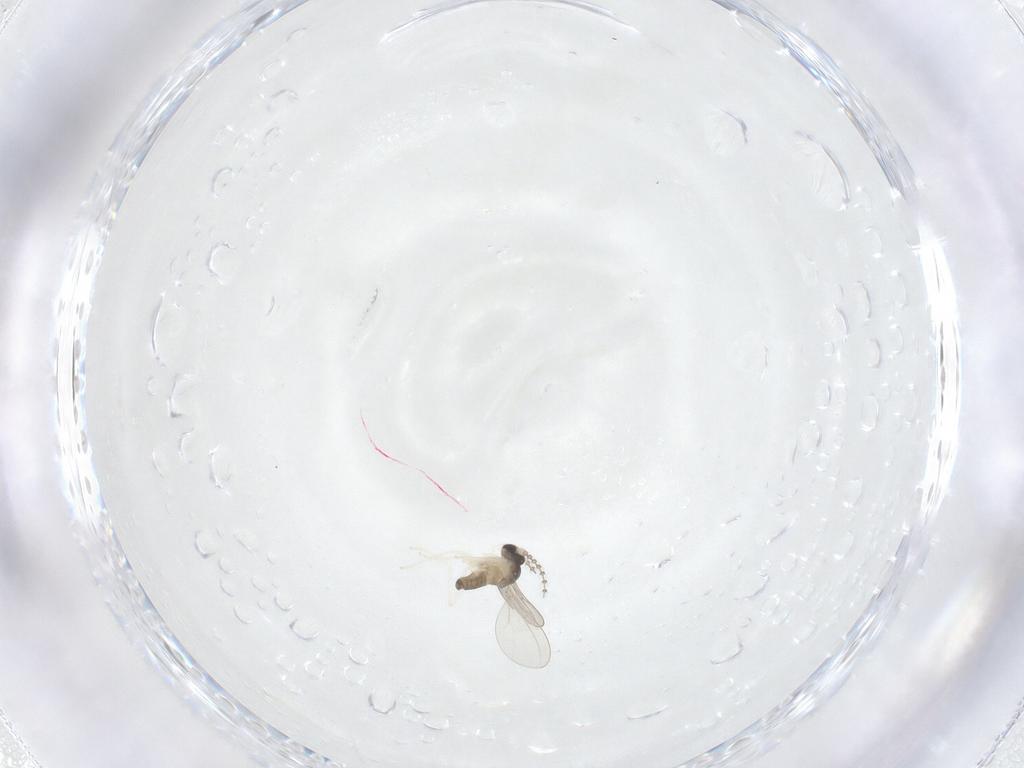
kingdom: Animalia
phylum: Arthropoda
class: Insecta
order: Diptera
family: Cecidomyiidae
